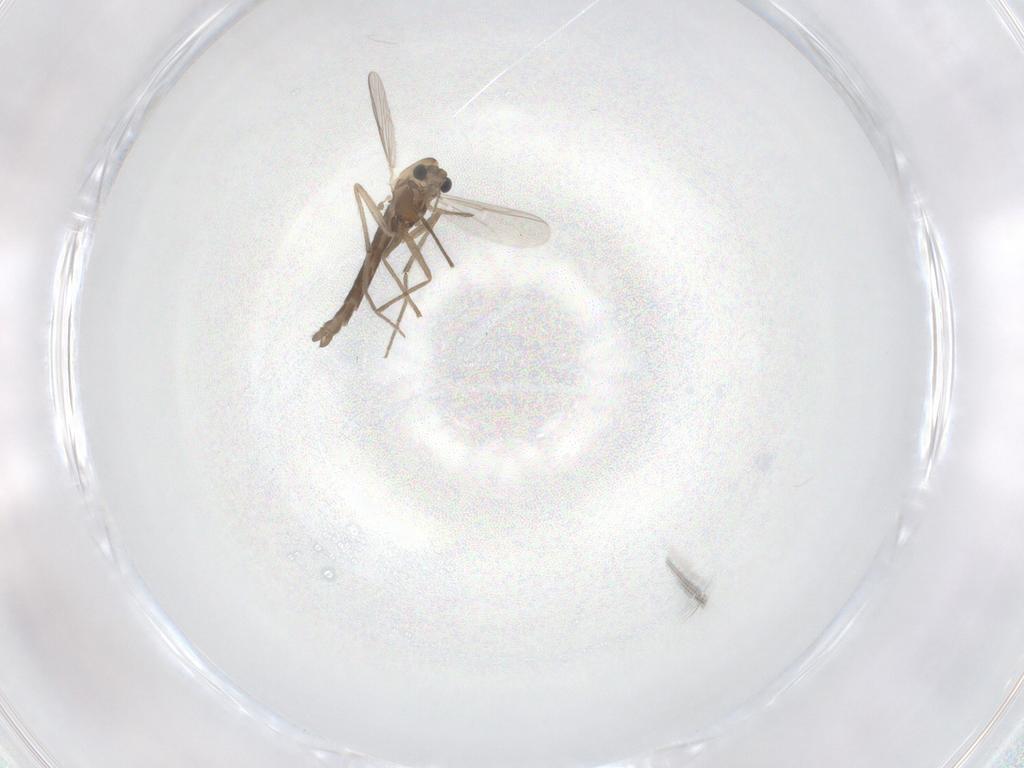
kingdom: Animalia
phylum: Arthropoda
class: Insecta
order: Diptera
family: Chironomidae
